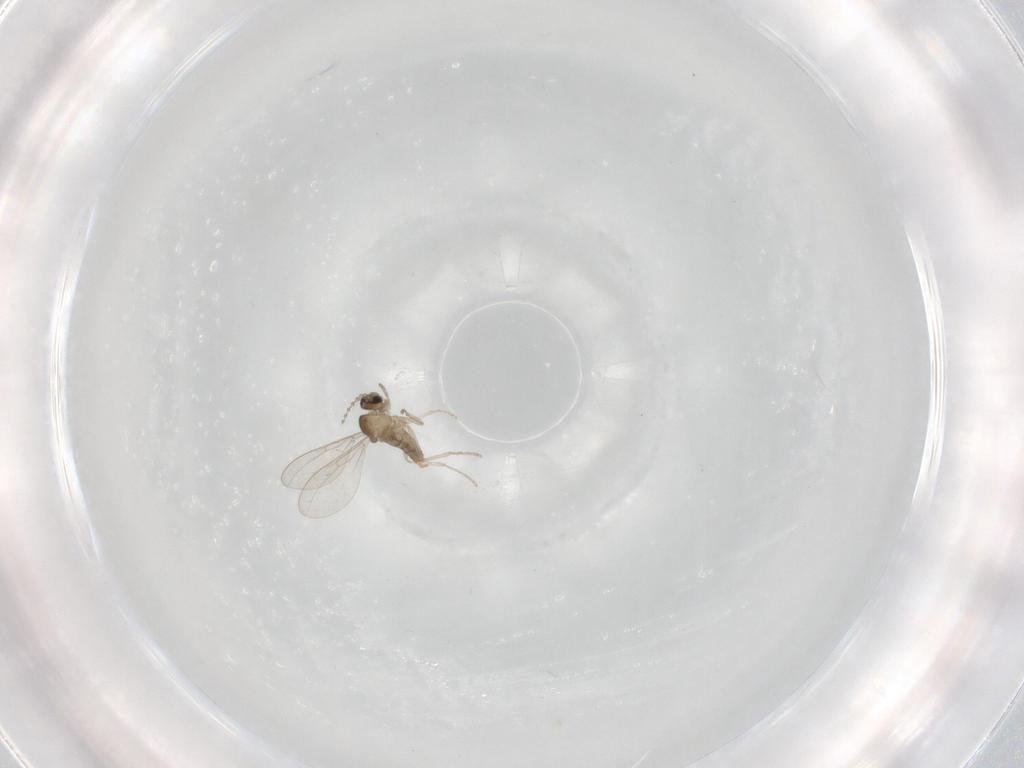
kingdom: Animalia
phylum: Arthropoda
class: Insecta
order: Diptera
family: Cecidomyiidae
